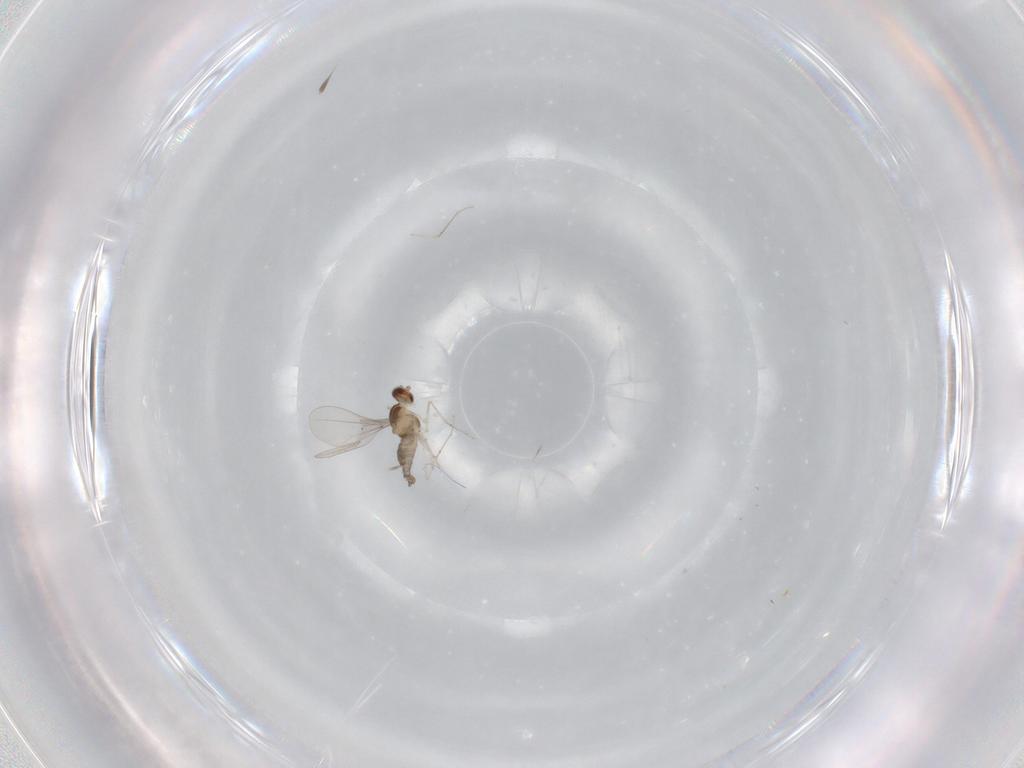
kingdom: Animalia
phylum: Arthropoda
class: Insecta
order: Diptera
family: Cecidomyiidae
